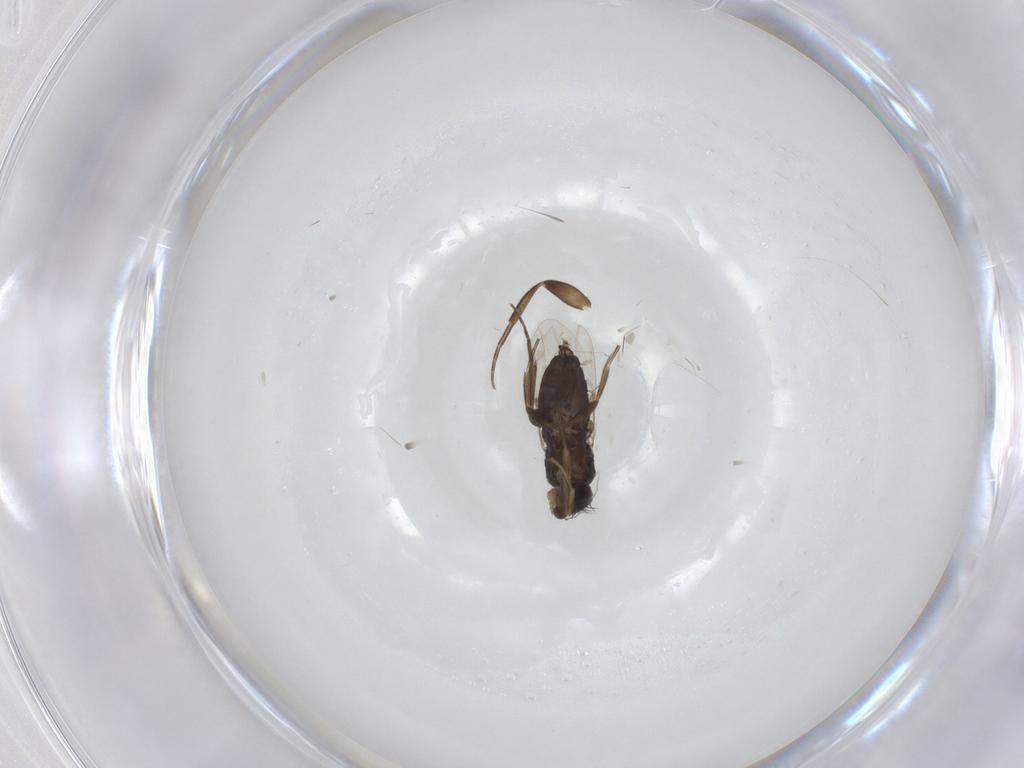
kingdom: Animalia
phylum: Arthropoda
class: Insecta
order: Diptera
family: Phoridae
